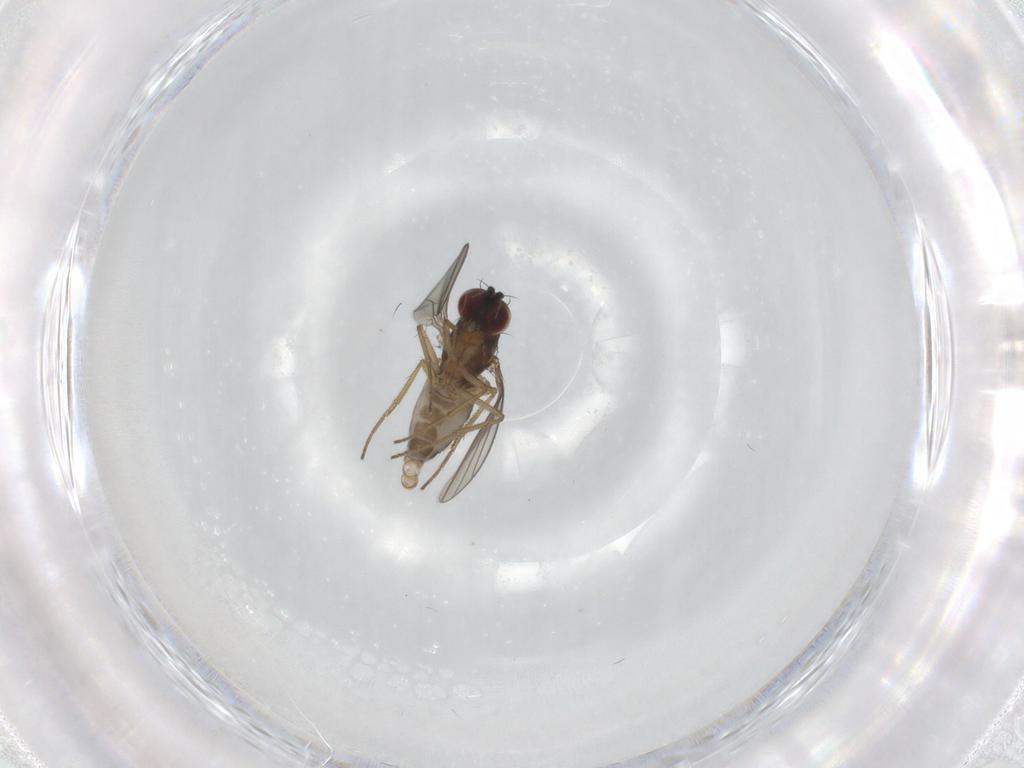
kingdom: Animalia
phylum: Arthropoda
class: Insecta
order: Diptera
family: Dolichopodidae
